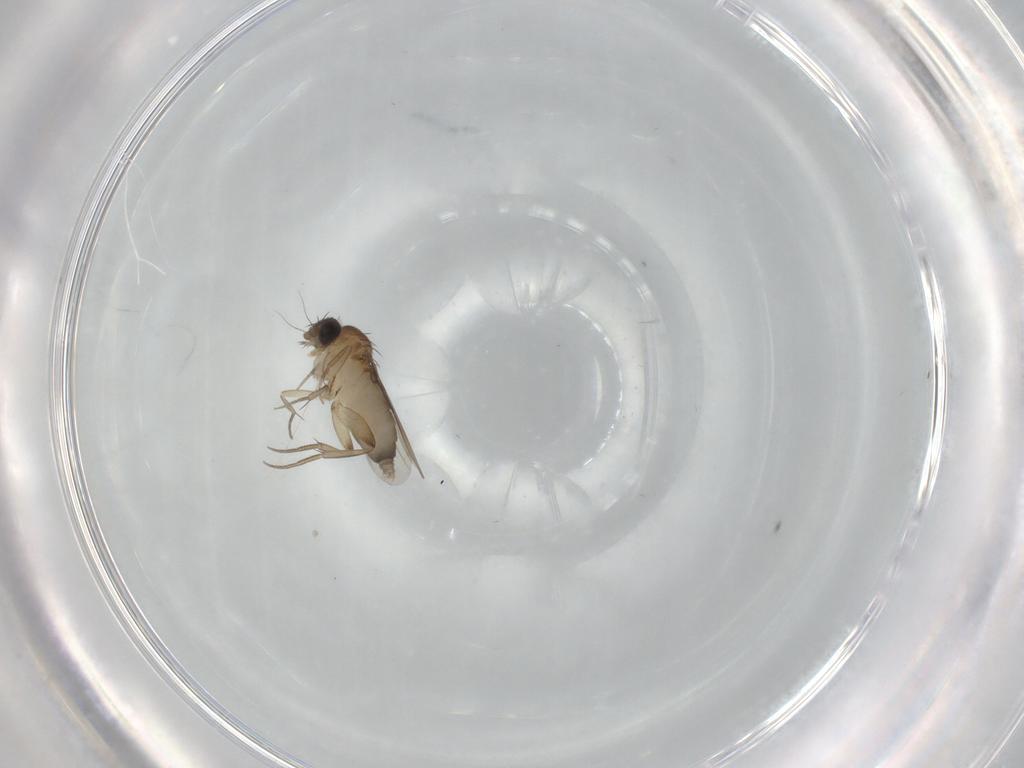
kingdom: Animalia
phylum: Arthropoda
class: Insecta
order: Diptera
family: Phoridae
